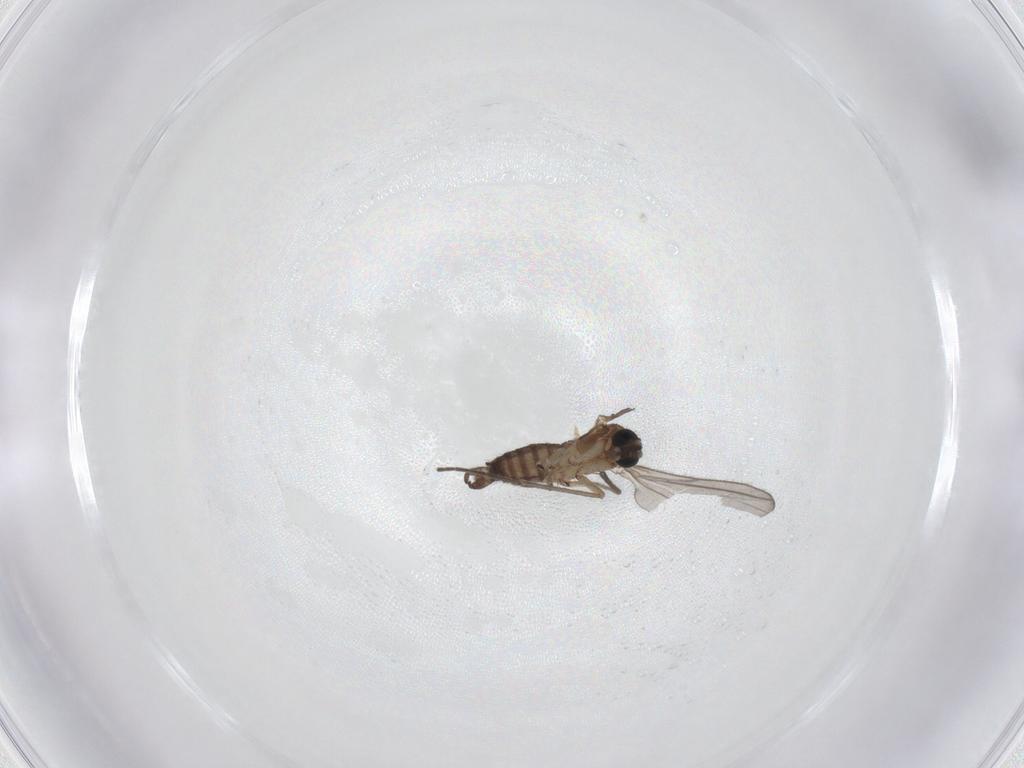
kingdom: Animalia
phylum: Arthropoda
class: Insecta
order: Diptera
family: Sciaridae
